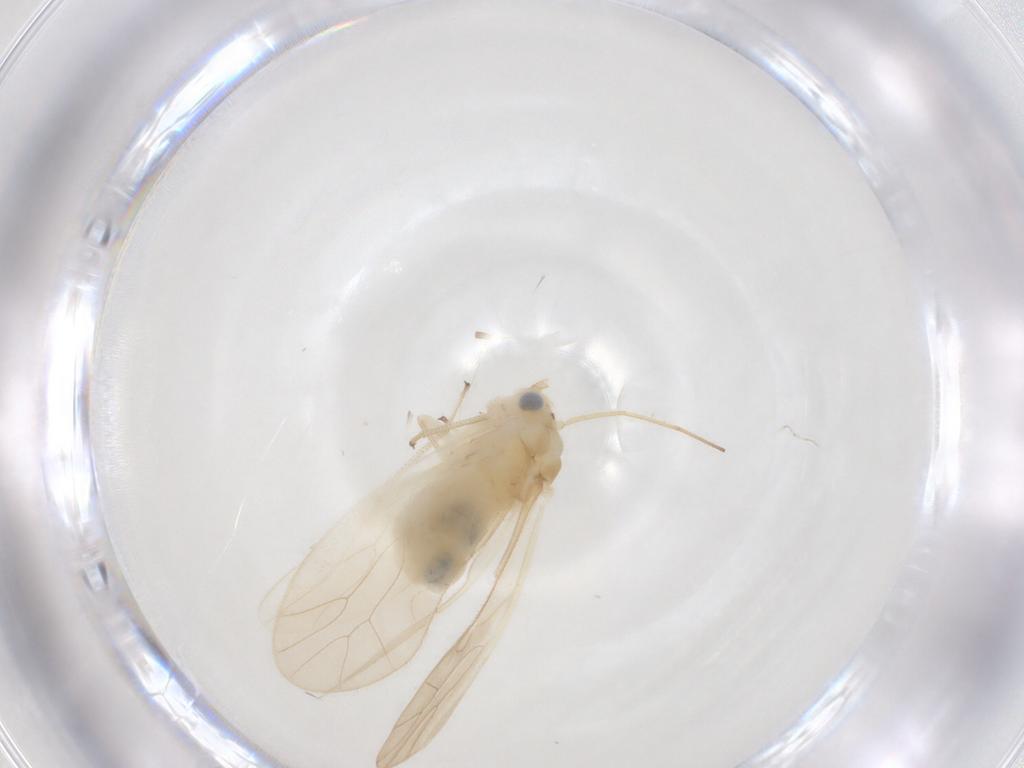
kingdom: Animalia
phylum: Arthropoda
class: Insecta
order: Psocodea
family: Caeciliusidae
